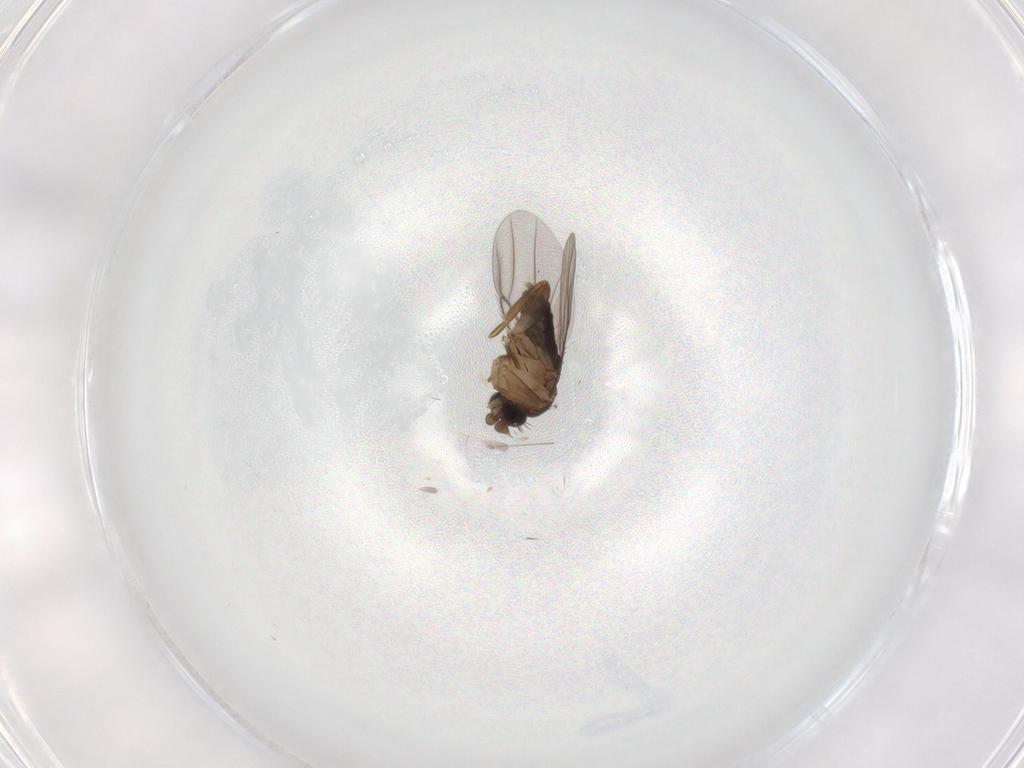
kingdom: Animalia
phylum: Arthropoda
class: Insecta
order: Diptera
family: Phoridae
